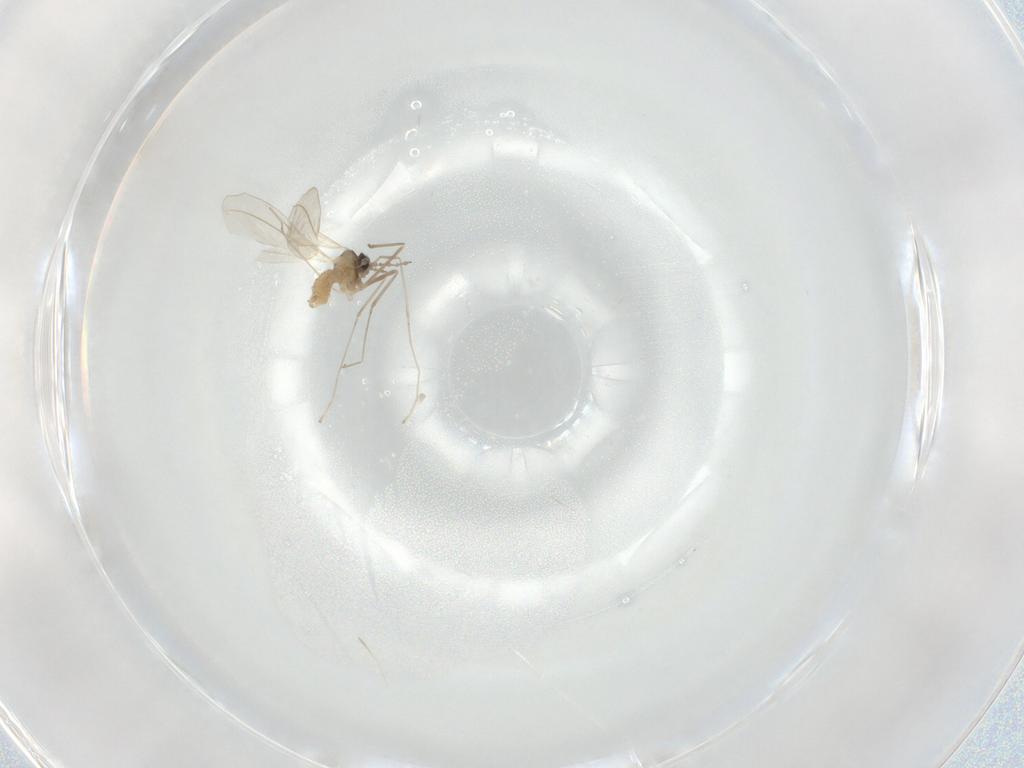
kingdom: Animalia
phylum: Arthropoda
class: Insecta
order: Diptera
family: Cecidomyiidae
